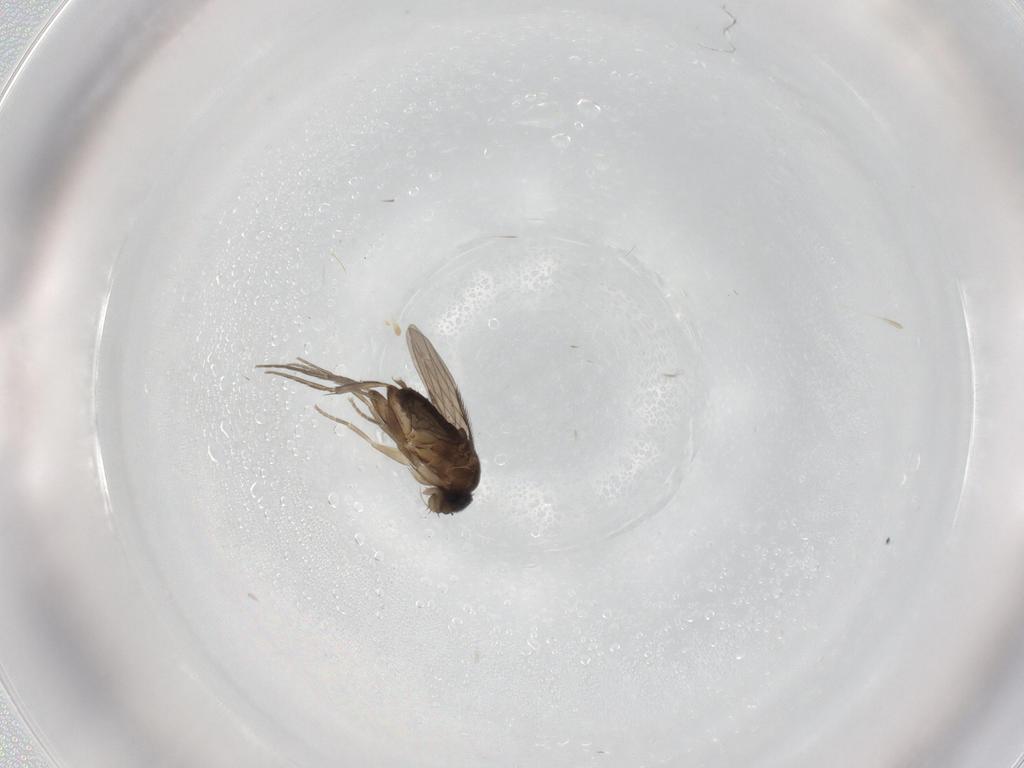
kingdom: Animalia
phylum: Arthropoda
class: Insecta
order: Diptera
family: Phoridae
